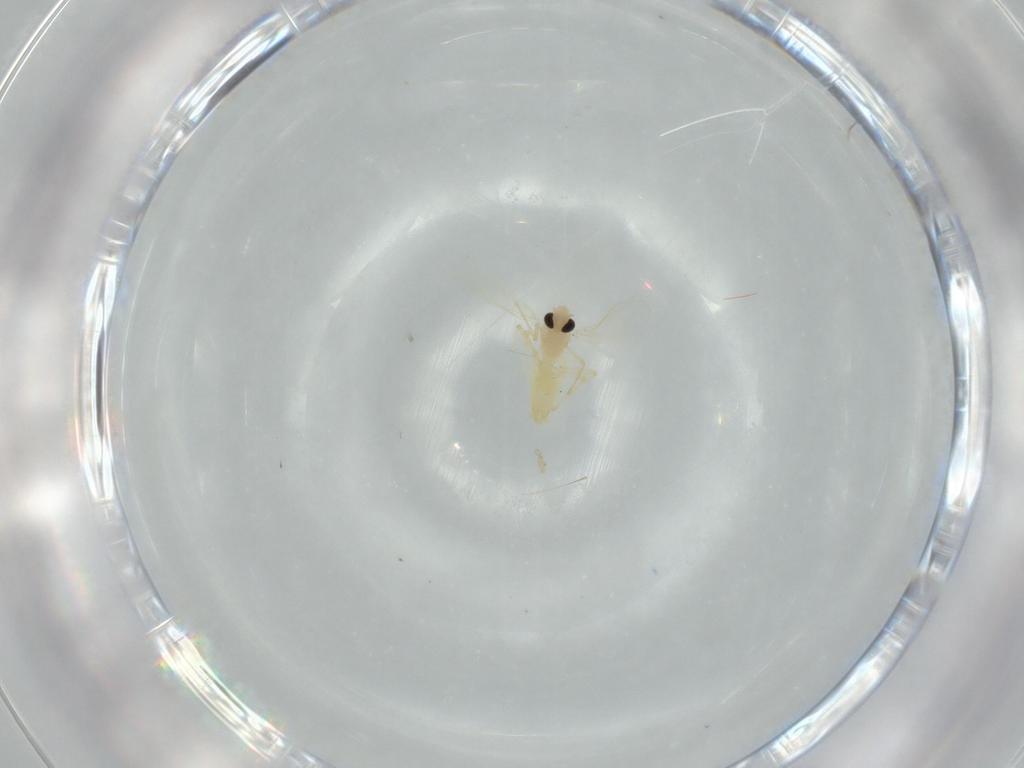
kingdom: Animalia
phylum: Arthropoda
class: Insecta
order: Diptera
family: Chironomidae
